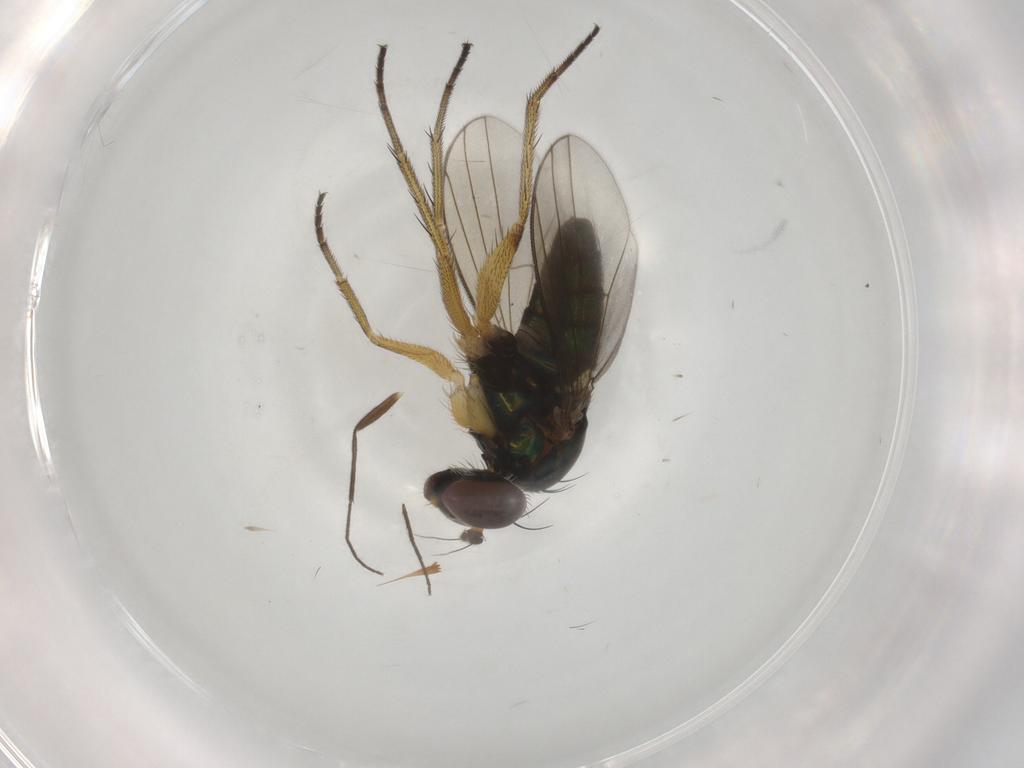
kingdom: Animalia
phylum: Arthropoda
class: Insecta
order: Diptera
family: Dolichopodidae
